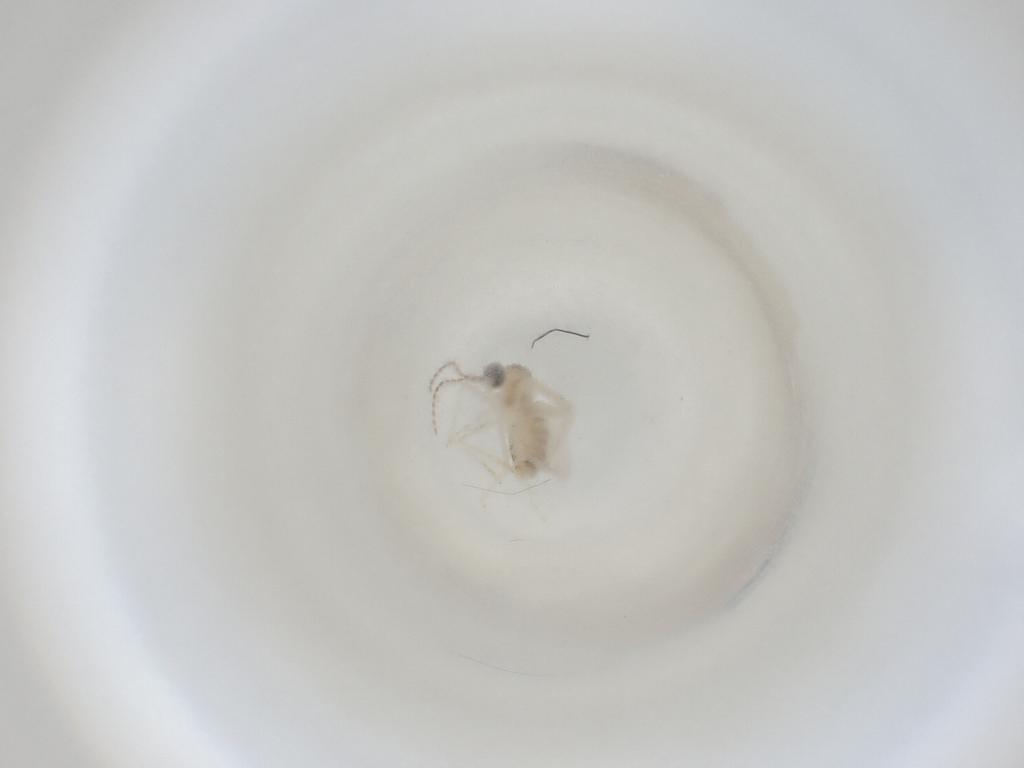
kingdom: Animalia
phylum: Arthropoda
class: Insecta
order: Diptera
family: Cecidomyiidae
